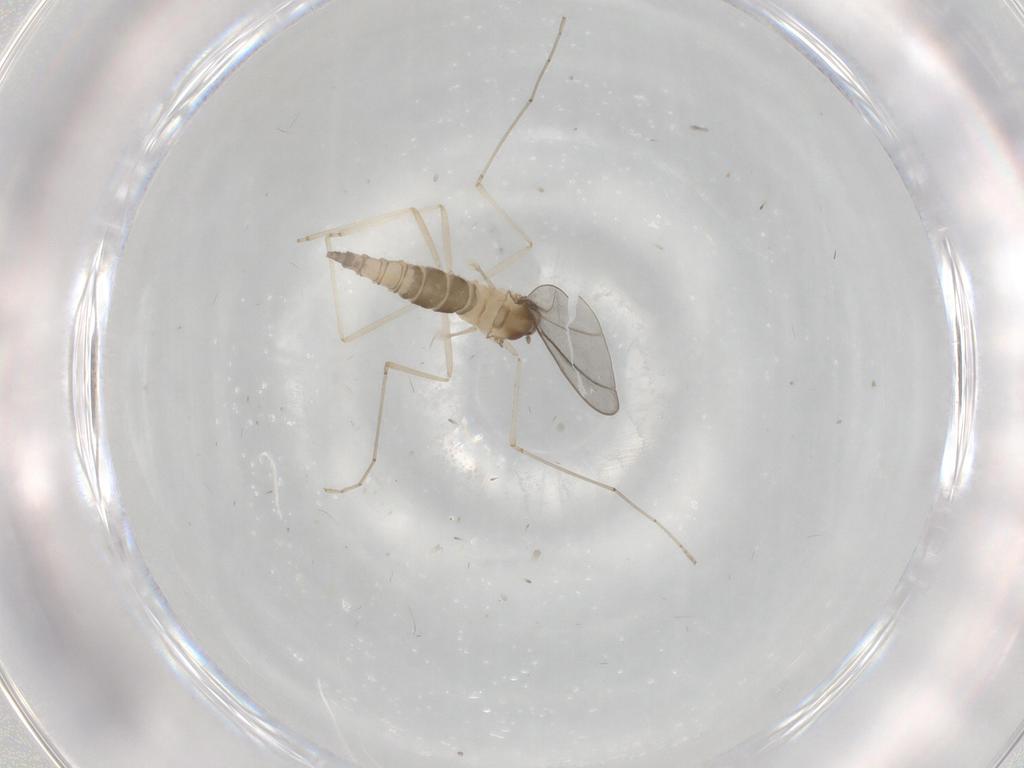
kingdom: Animalia
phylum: Arthropoda
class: Insecta
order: Diptera
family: Cecidomyiidae
